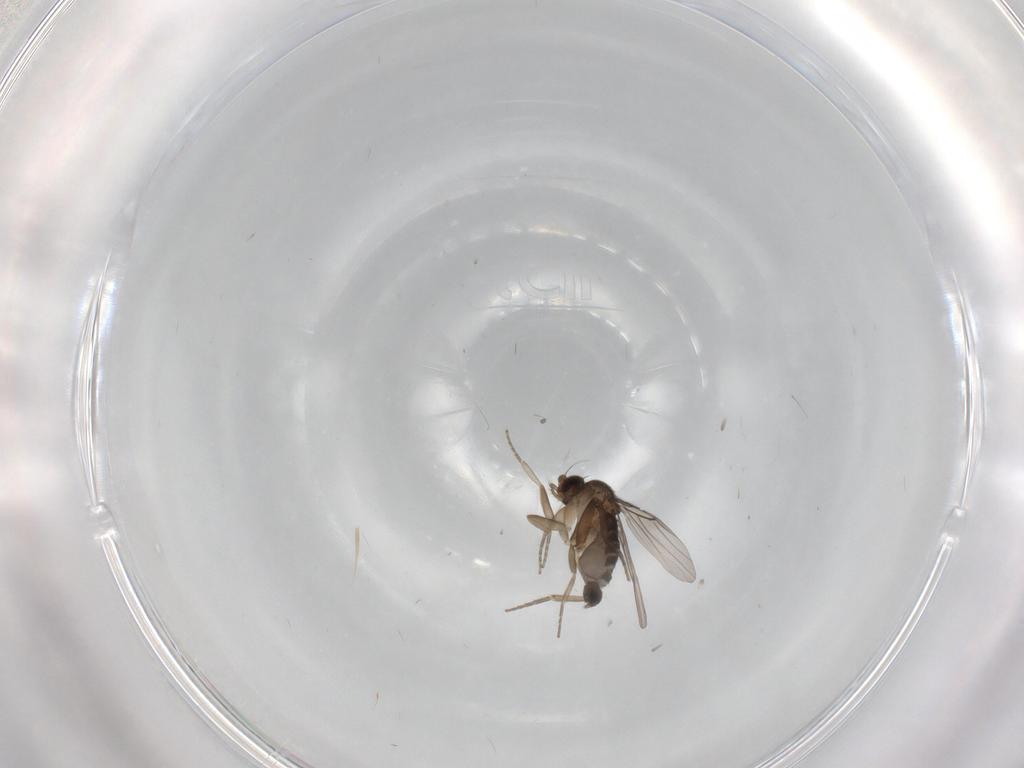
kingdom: Animalia
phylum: Arthropoda
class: Insecta
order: Diptera
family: Phoridae
